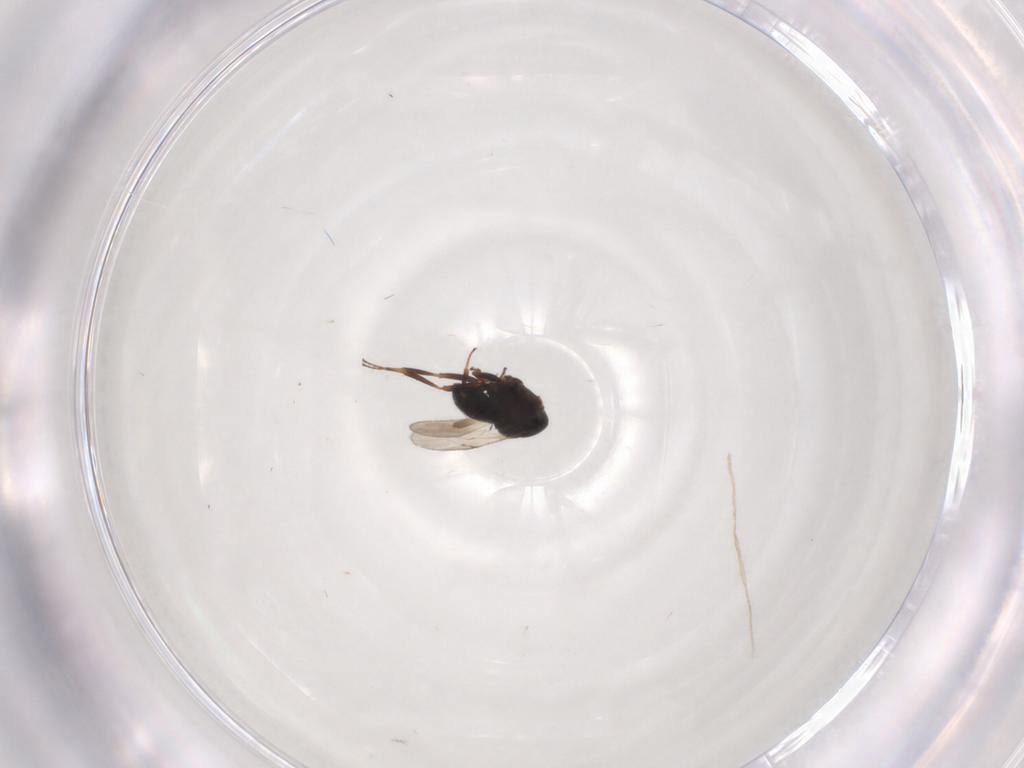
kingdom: Animalia
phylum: Arthropoda
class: Insecta
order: Hymenoptera
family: Scelionidae
